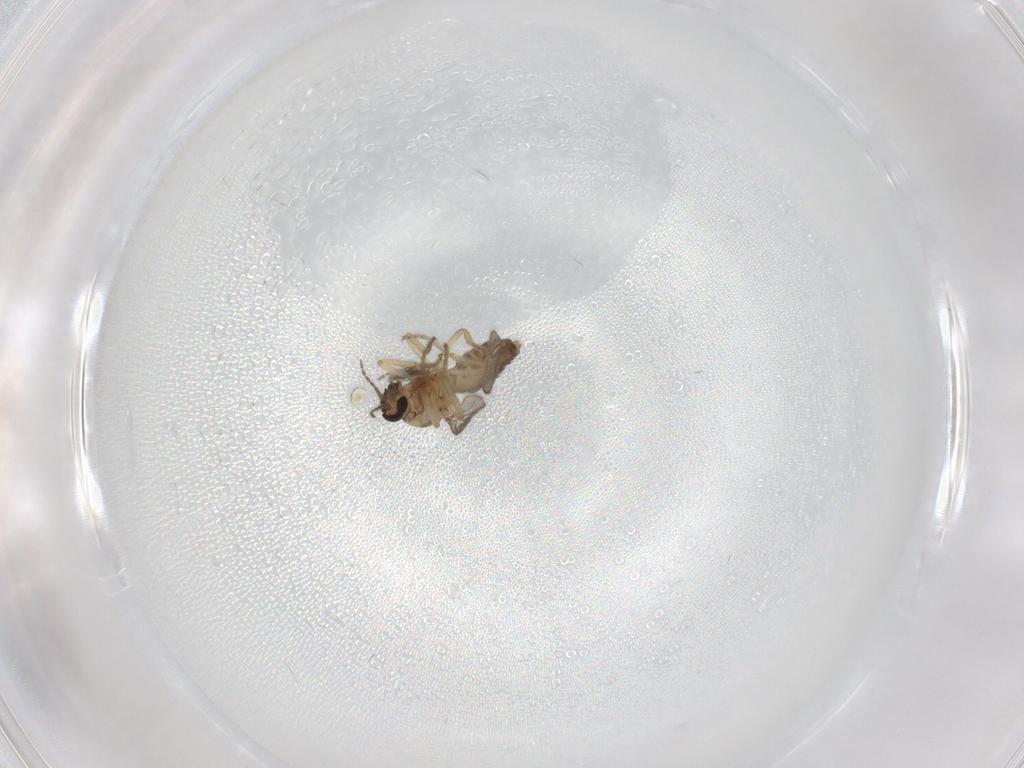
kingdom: Animalia
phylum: Arthropoda
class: Insecta
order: Diptera
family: Ceratopogonidae
